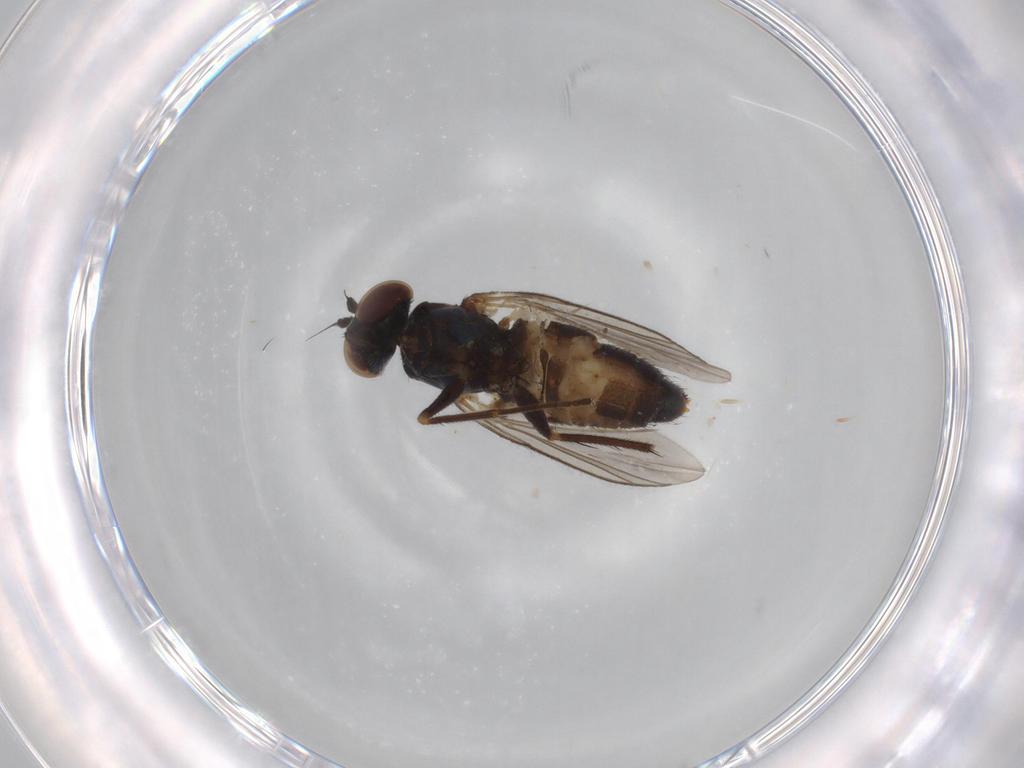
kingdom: Animalia
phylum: Arthropoda
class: Insecta
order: Diptera
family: Dolichopodidae
